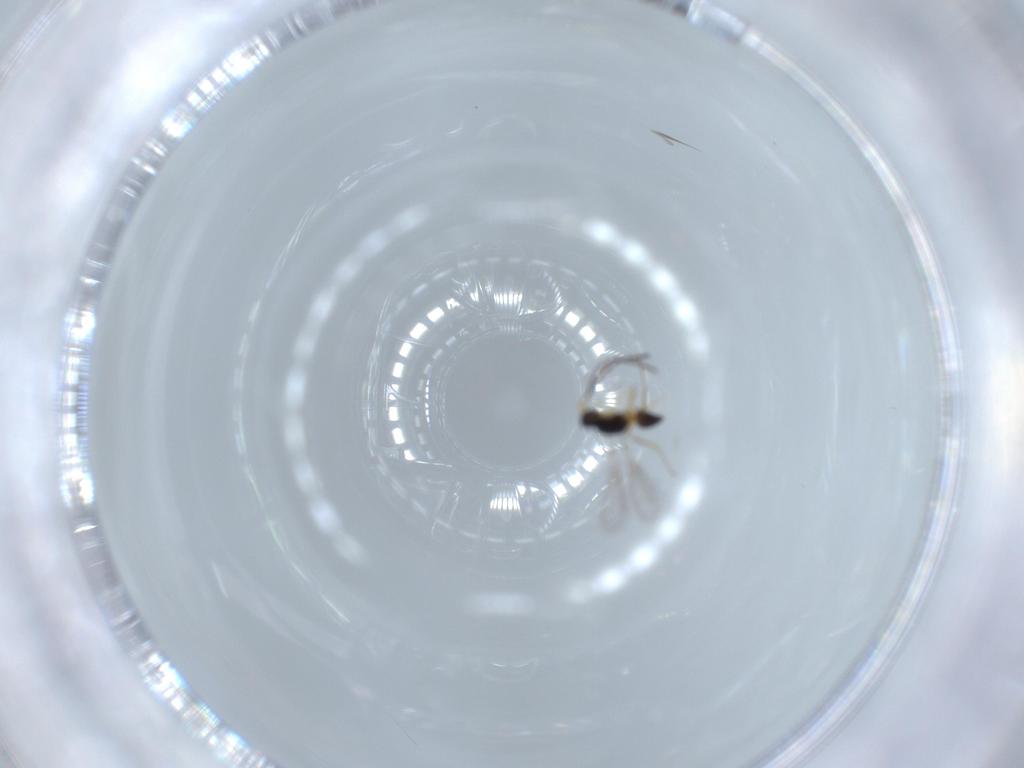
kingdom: Animalia
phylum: Arthropoda
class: Insecta
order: Hymenoptera
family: Mymaridae
